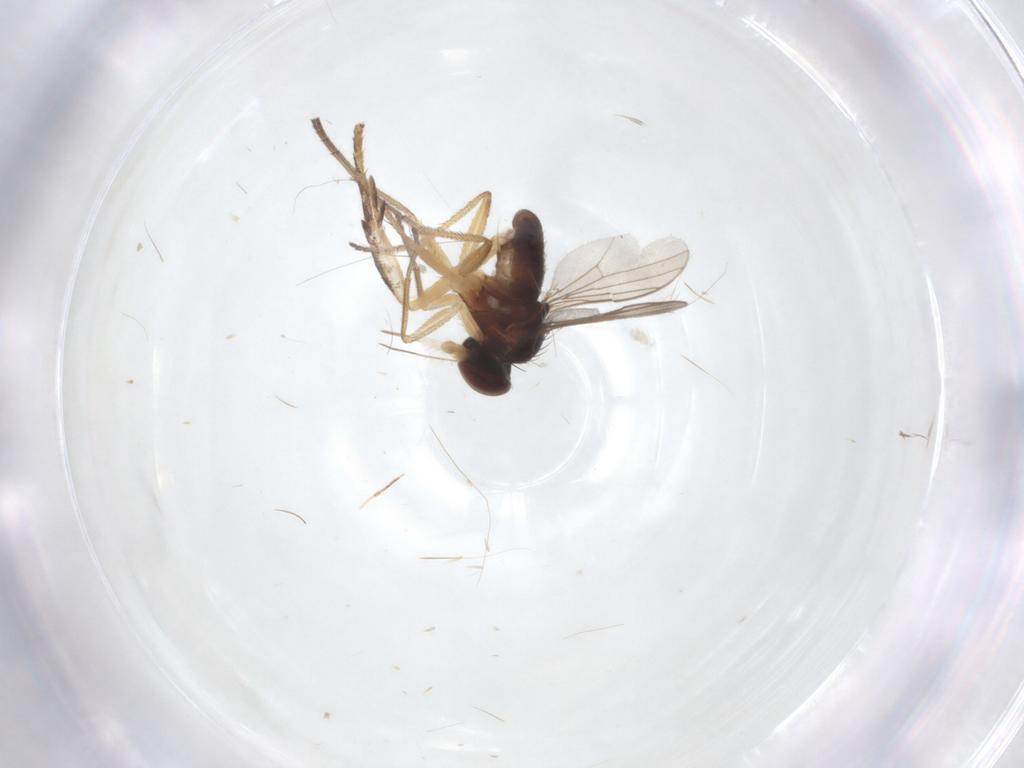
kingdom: Animalia
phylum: Arthropoda
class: Insecta
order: Diptera
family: Dolichopodidae
